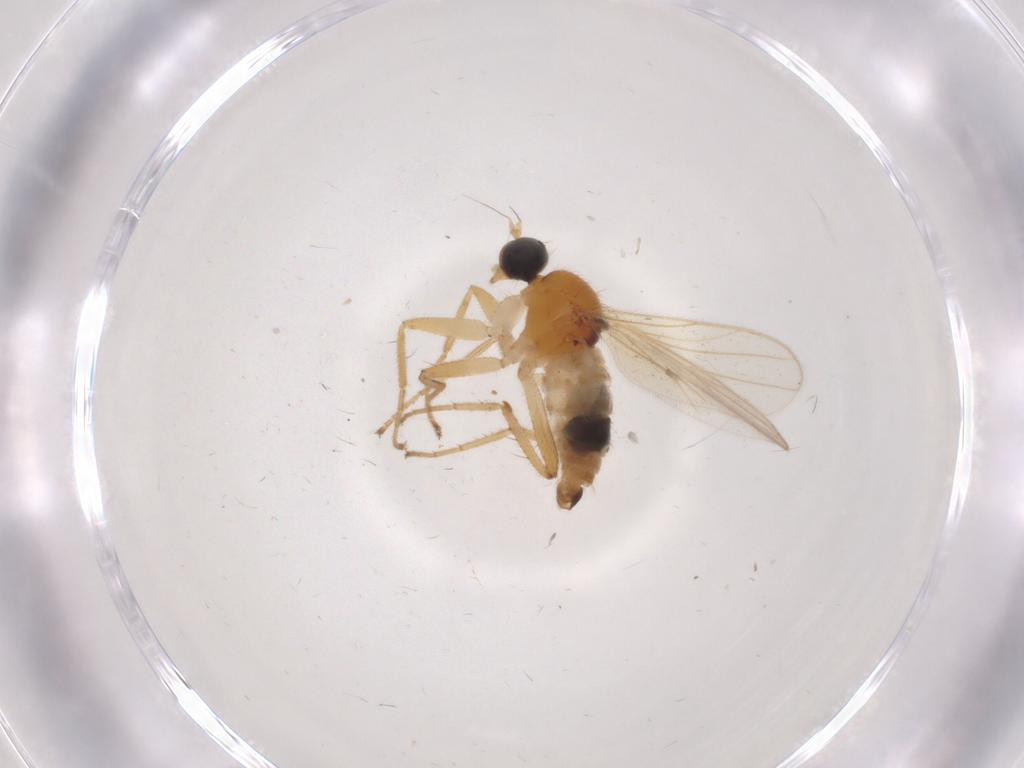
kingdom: Animalia
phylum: Arthropoda
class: Insecta
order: Diptera
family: Hybotidae
